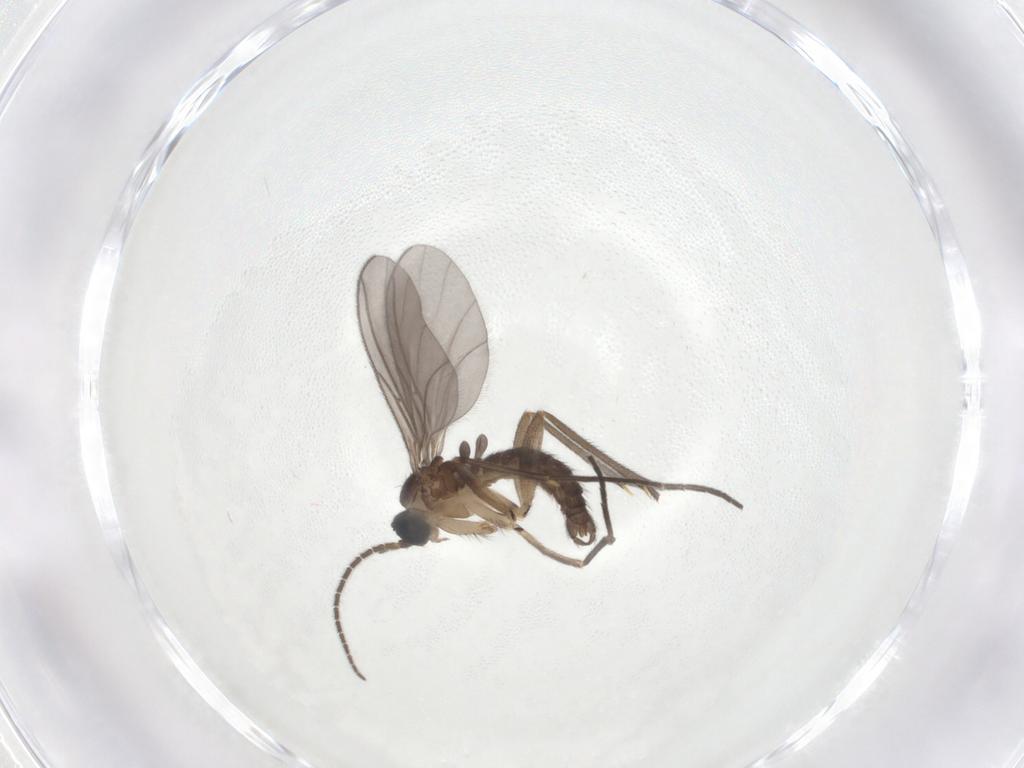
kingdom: Animalia
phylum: Arthropoda
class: Insecta
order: Diptera
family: Sciaridae
